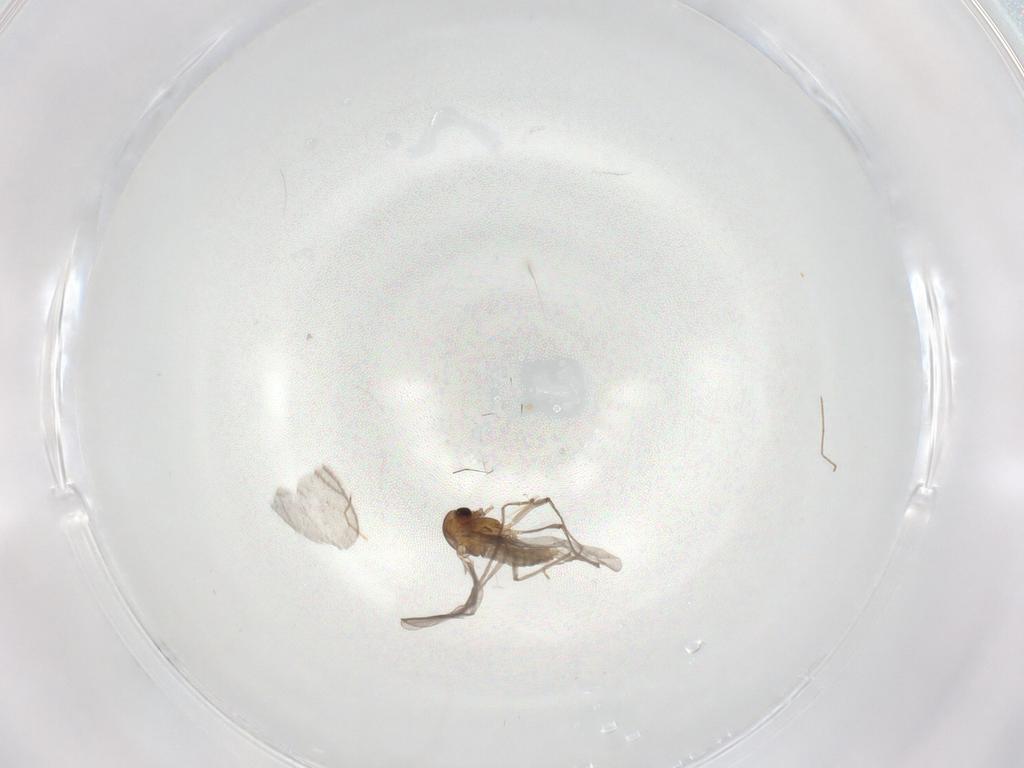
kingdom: Animalia
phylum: Arthropoda
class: Insecta
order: Diptera
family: Chironomidae
